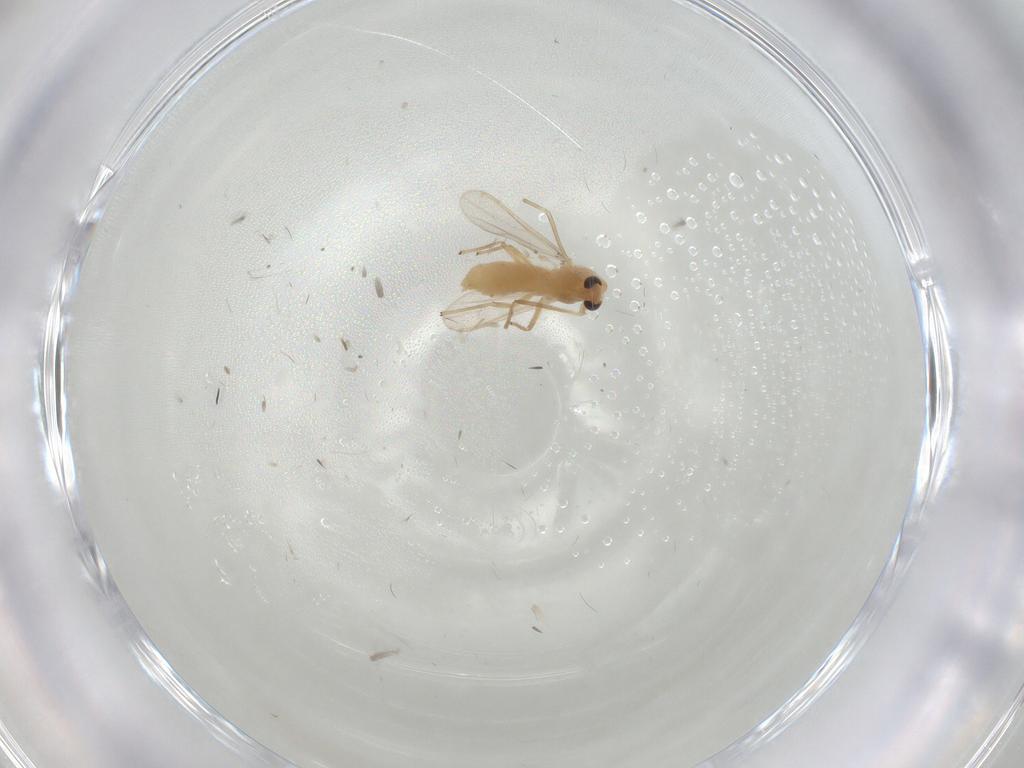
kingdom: Animalia
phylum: Arthropoda
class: Insecta
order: Diptera
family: Chironomidae
